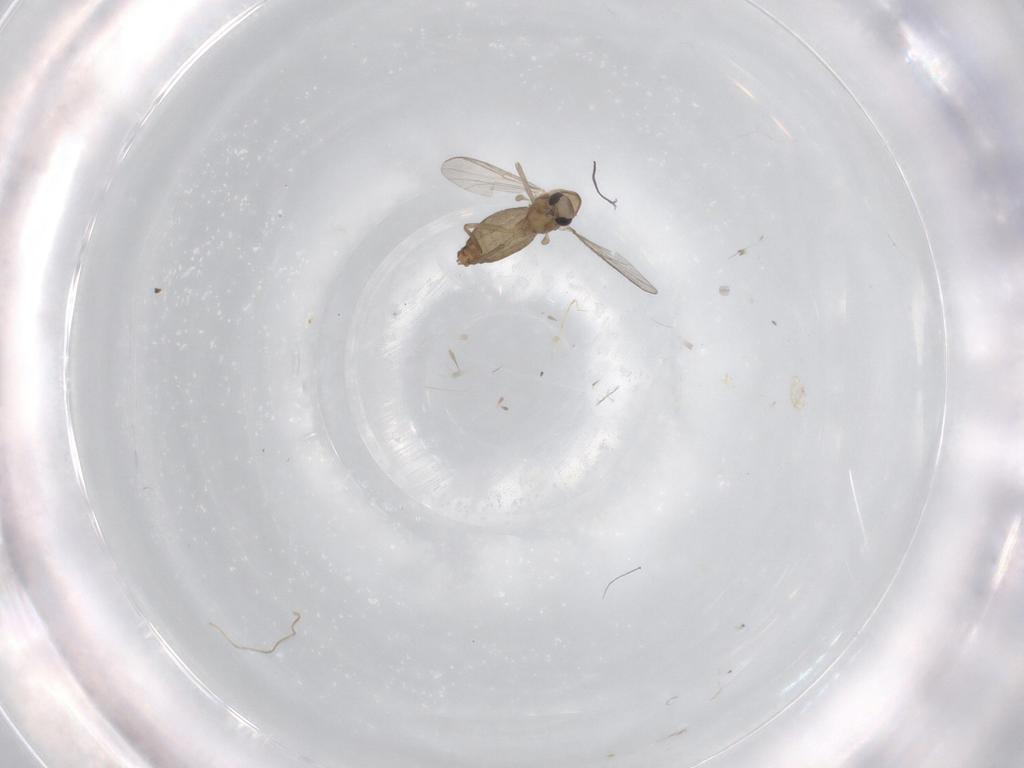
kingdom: Animalia
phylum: Arthropoda
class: Insecta
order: Diptera
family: Chironomidae
